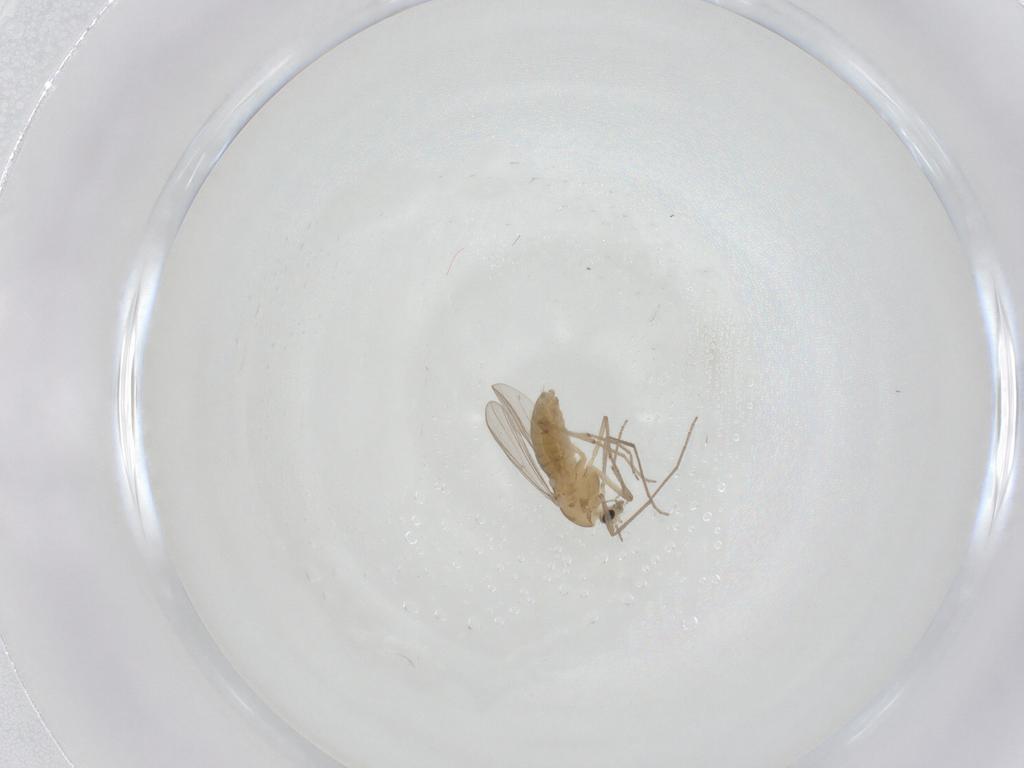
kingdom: Animalia
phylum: Arthropoda
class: Insecta
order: Diptera
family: Chironomidae
